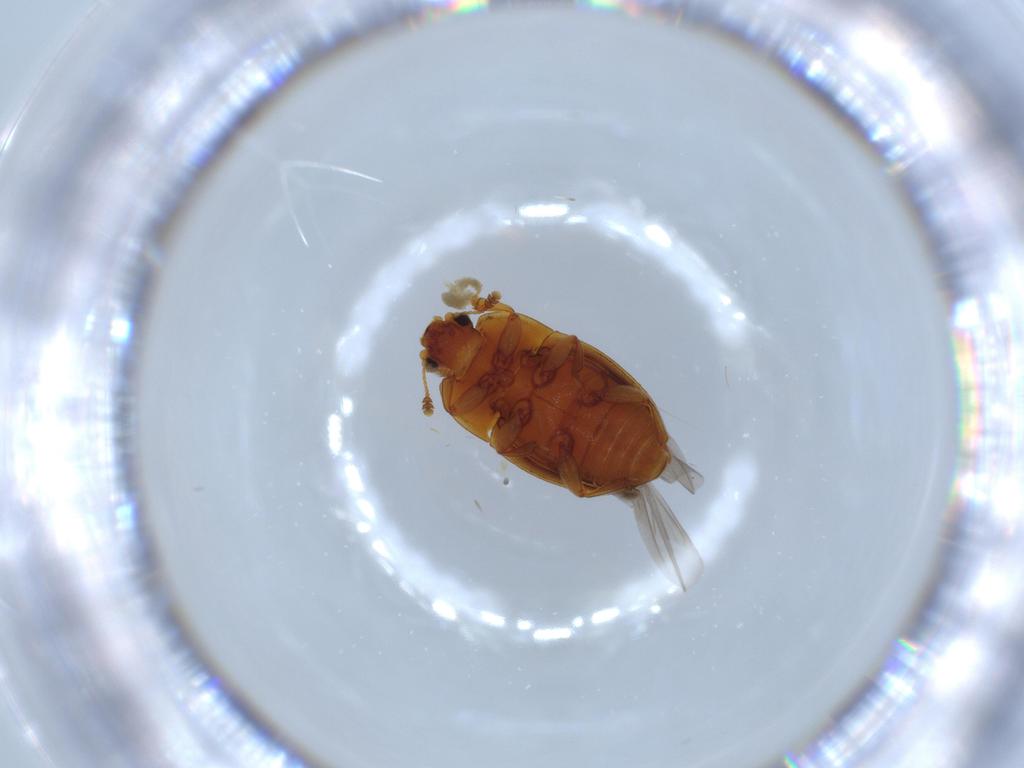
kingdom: Animalia
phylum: Arthropoda
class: Insecta
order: Coleoptera
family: Nitidulidae
